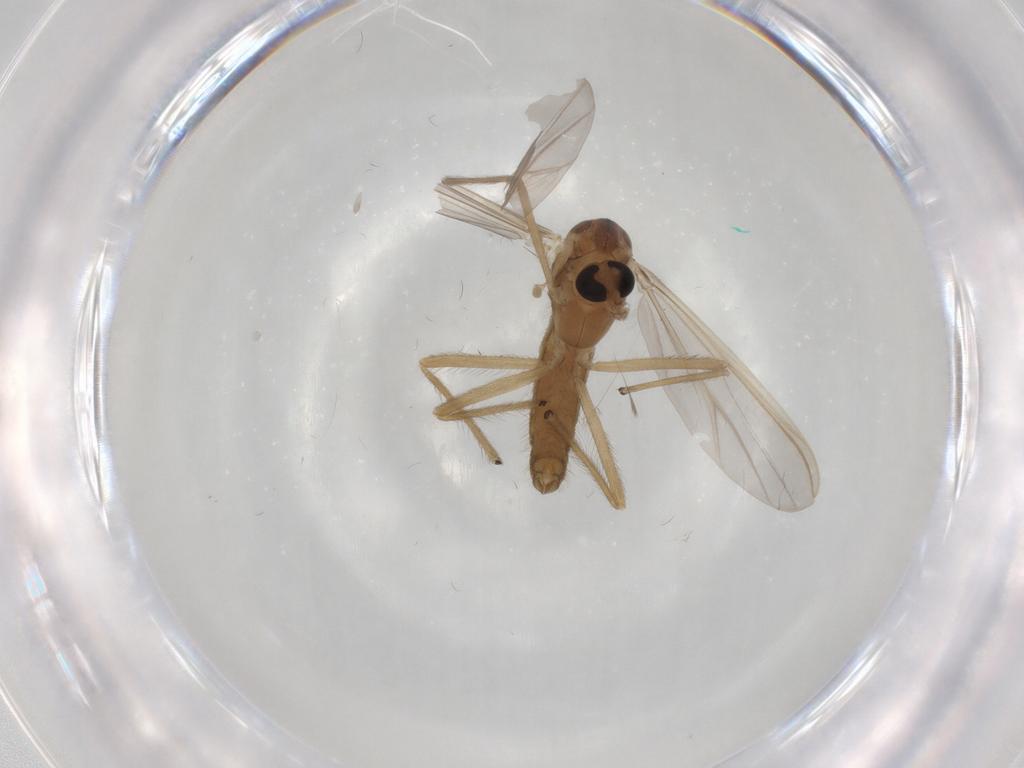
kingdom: Animalia
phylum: Arthropoda
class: Insecta
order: Diptera
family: Chironomidae
